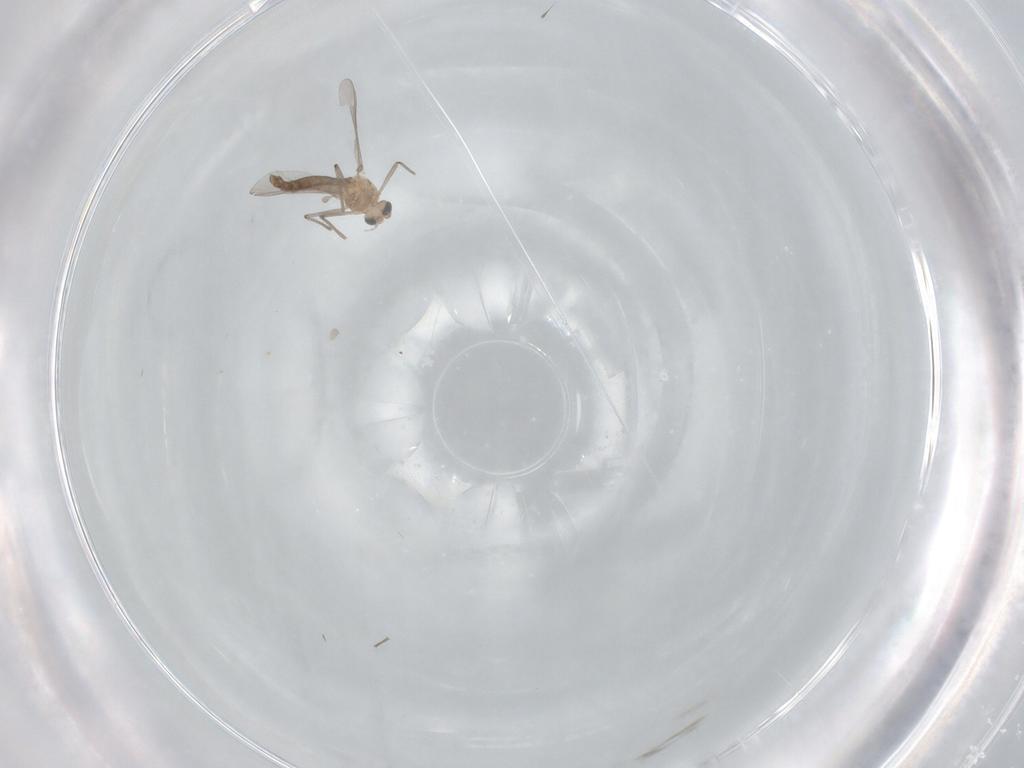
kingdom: Animalia
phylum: Arthropoda
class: Insecta
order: Diptera
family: Chironomidae
